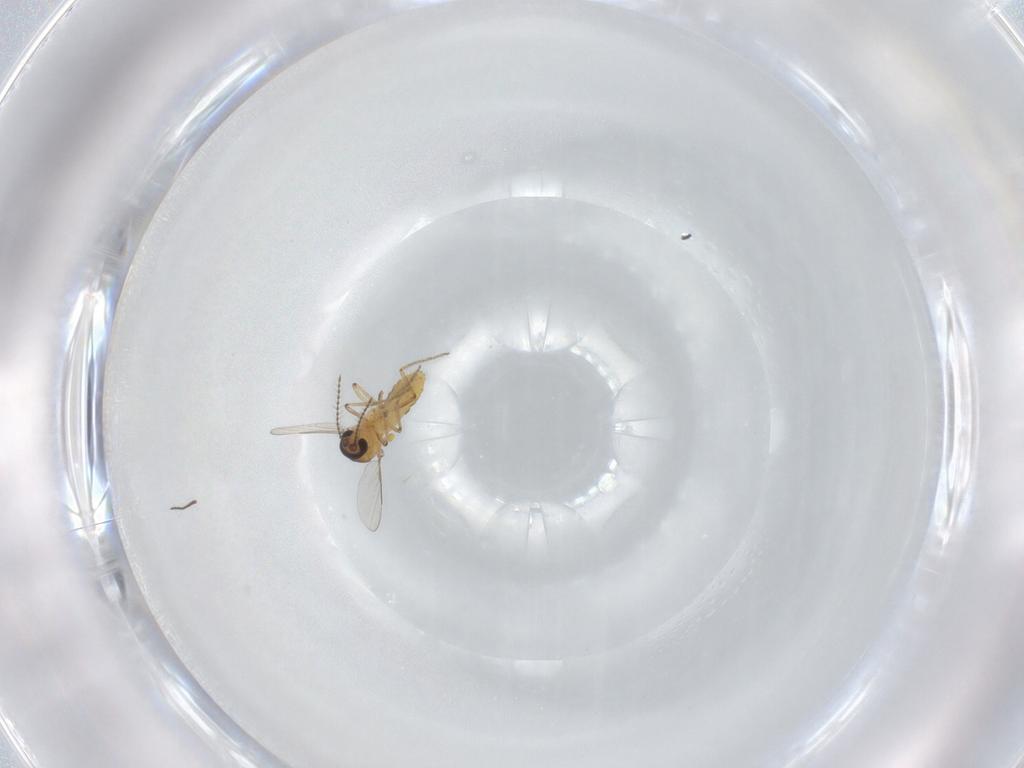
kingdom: Animalia
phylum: Arthropoda
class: Insecta
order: Diptera
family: Ceratopogonidae
